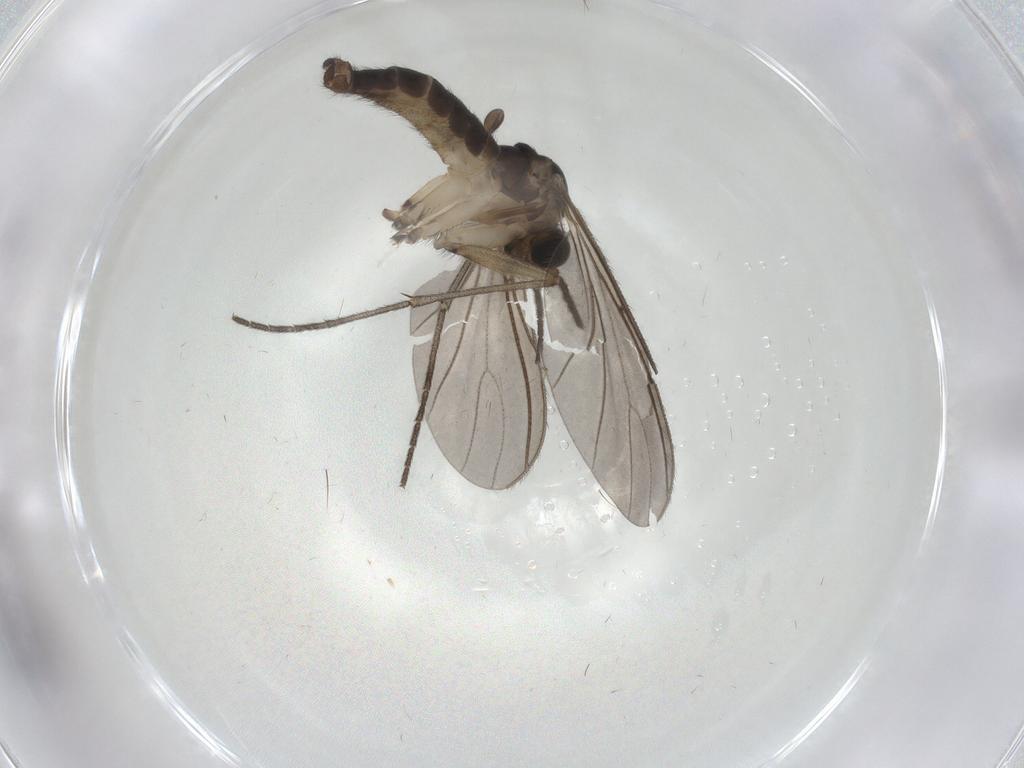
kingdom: Animalia
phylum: Arthropoda
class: Insecta
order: Diptera
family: Sciaridae
